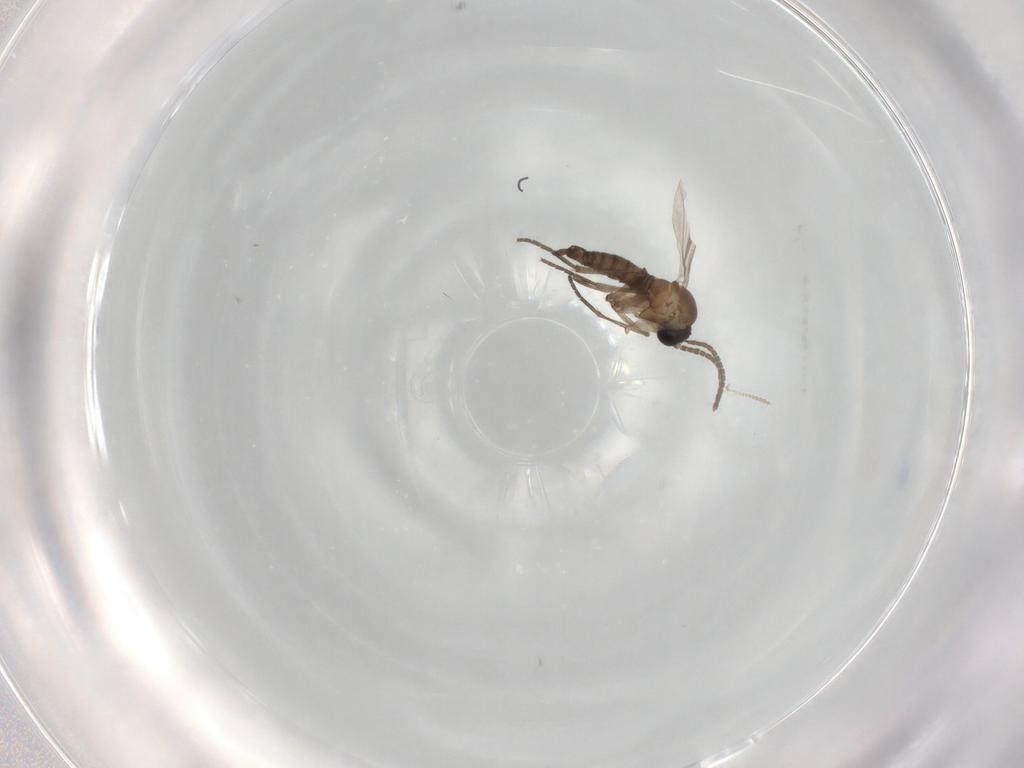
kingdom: Animalia
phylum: Arthropoda
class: Insecta
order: Diptera
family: Sciaridae
